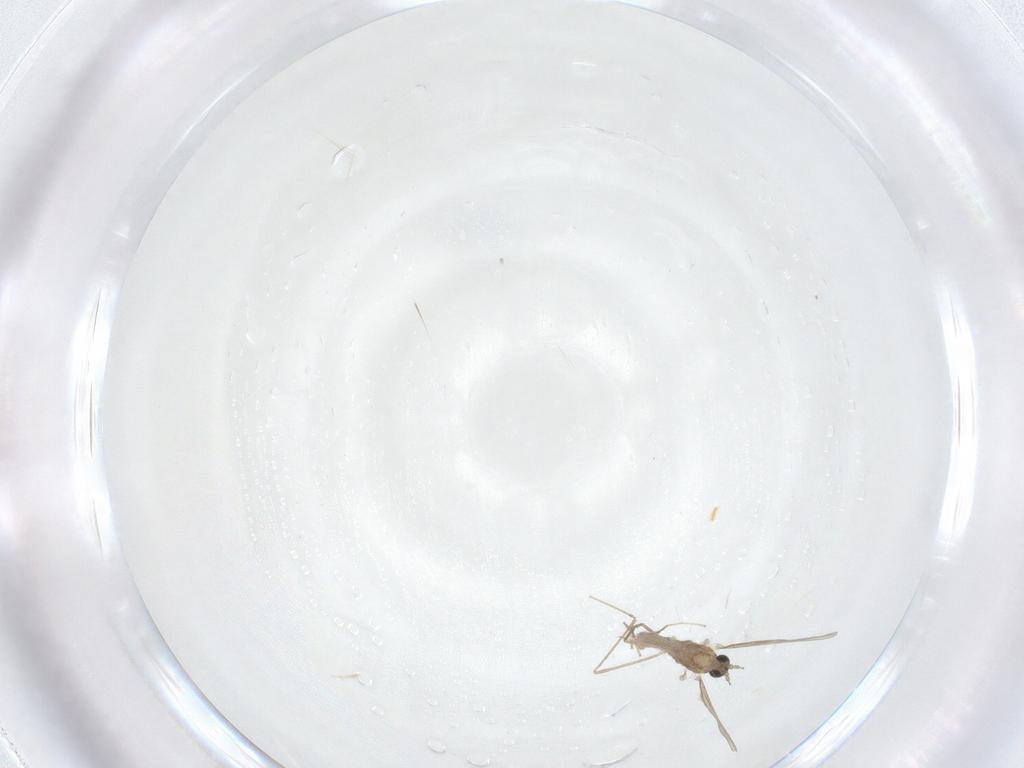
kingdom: Animalia
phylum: Arthropoda
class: Insecta
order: Diptera
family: Cecidomyiidae
